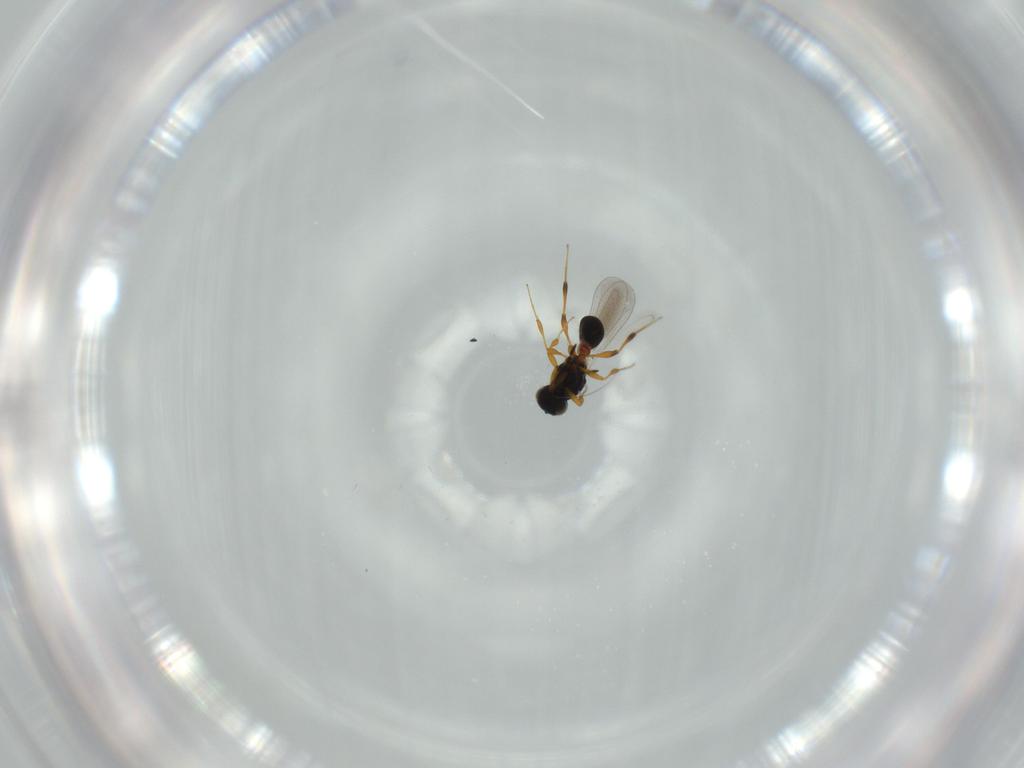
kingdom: Animalia
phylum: Arthropoda
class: Insecta
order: Hymenoptera
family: Platygastridae
